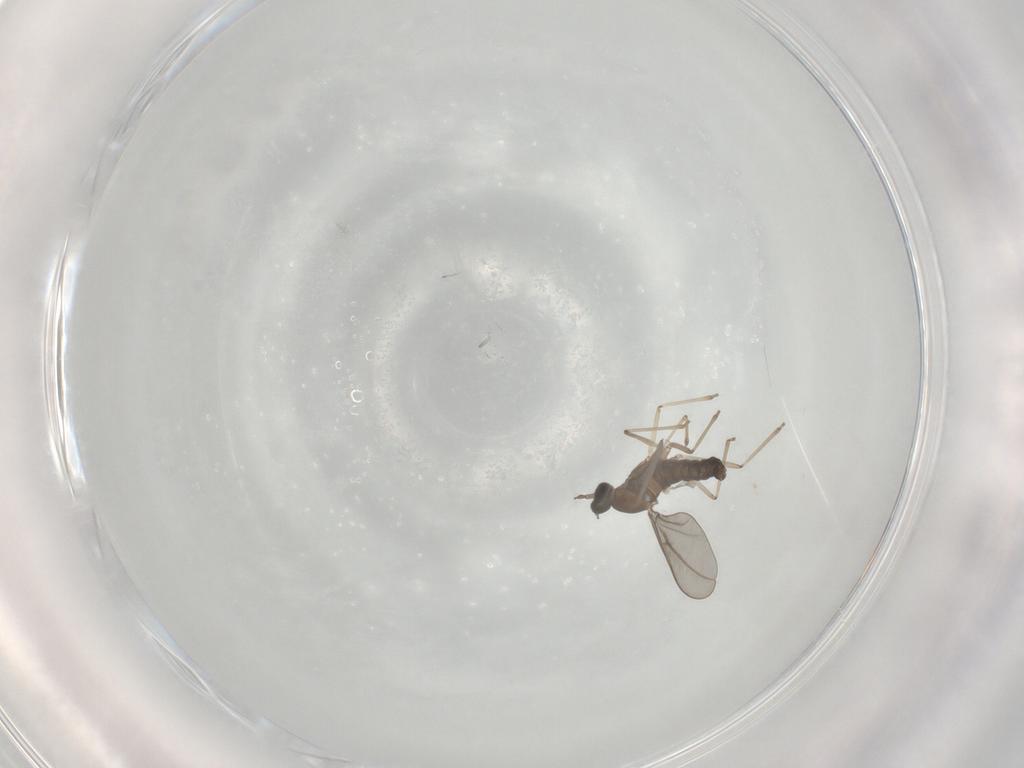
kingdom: Animalia
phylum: Arthropoda
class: Insecta
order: Diptera
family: Cecidomyiidae
